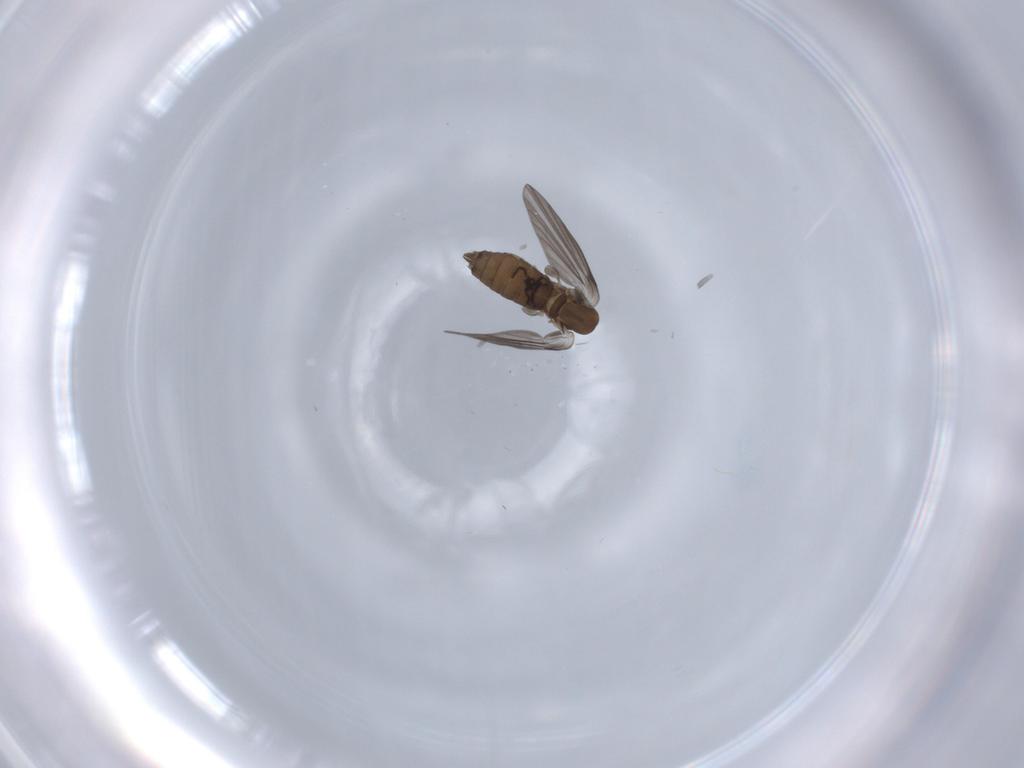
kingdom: Animalia
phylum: Arthropoda
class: Insecta
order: Diptera
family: Psychodidae
